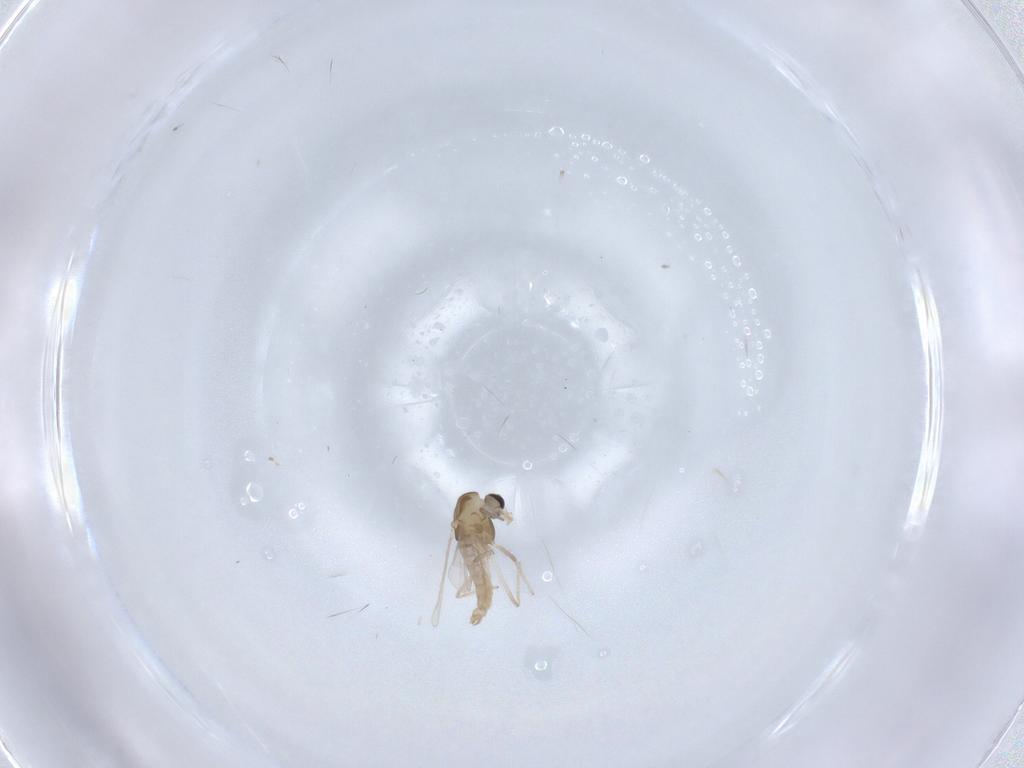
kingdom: Animalia
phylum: Arthropoda
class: Insecta
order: Diptera
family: Chironomidae
